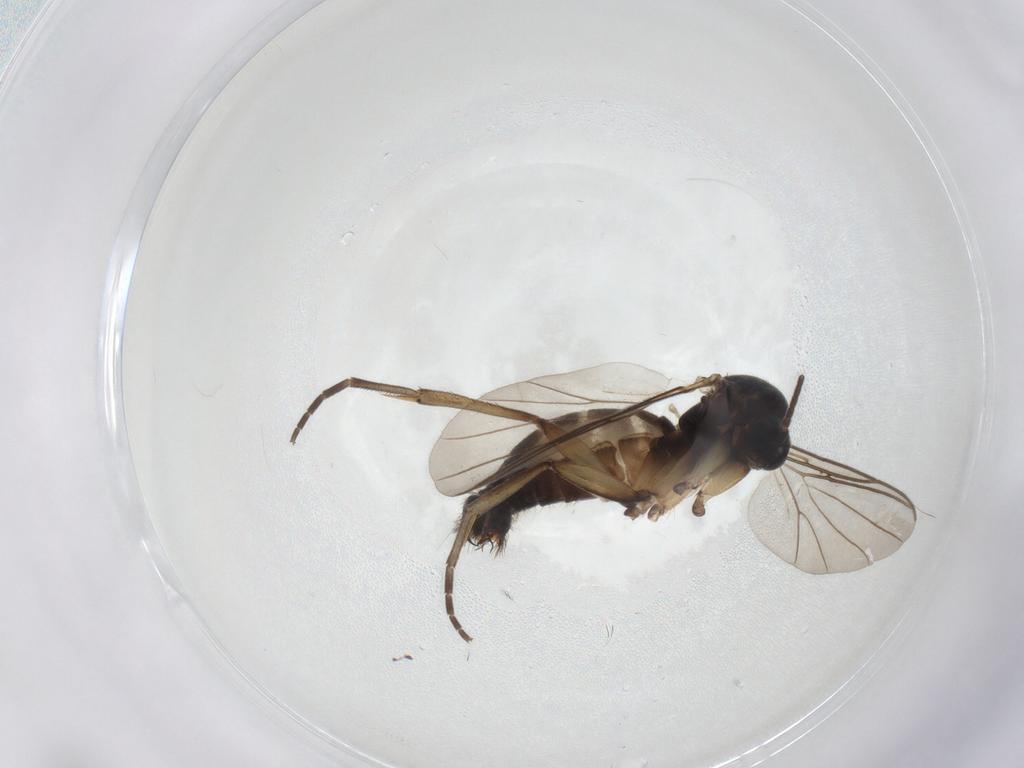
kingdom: Animalia
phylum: Arthropoda
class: Insecta
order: Diptera
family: Mycetophilidae
